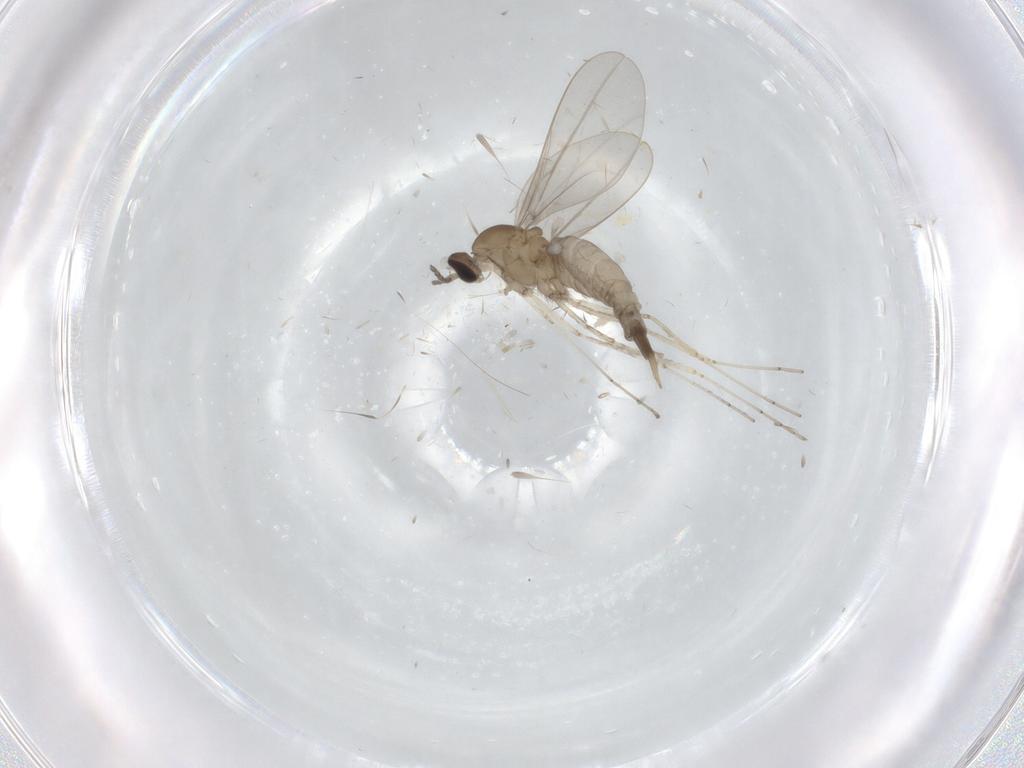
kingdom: Animalia
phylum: Arthropoda
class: Insecta
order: Diptera
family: Cecidomyiidae
